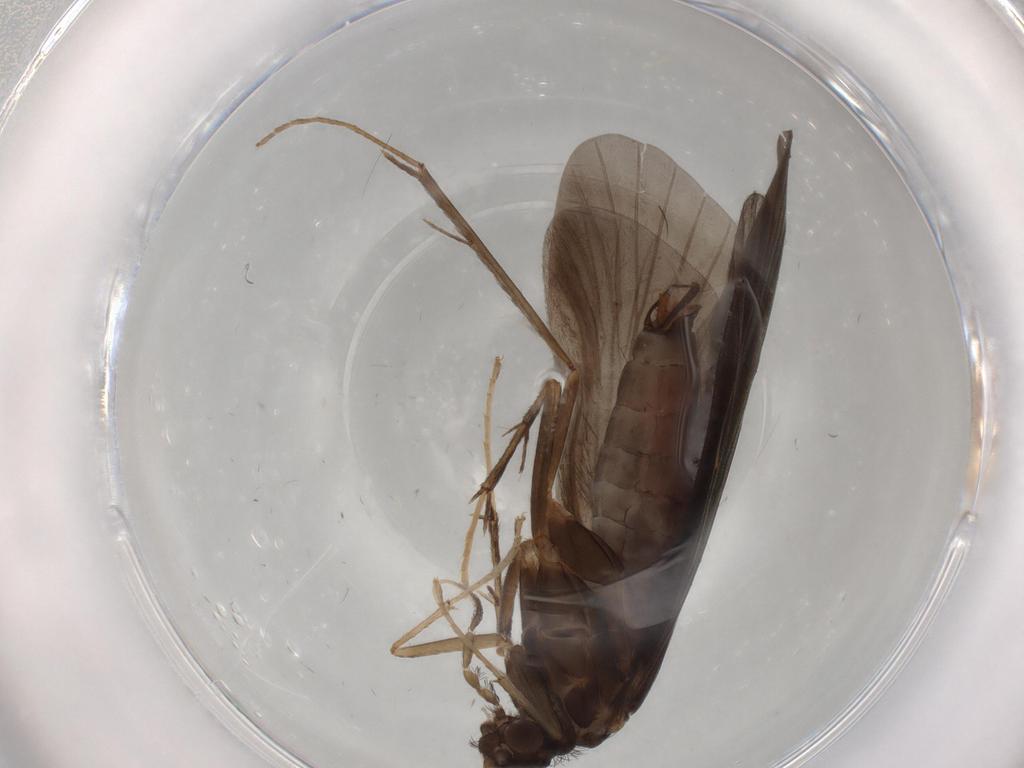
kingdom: Animalia
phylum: Arthropoda
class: Insecta
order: Trichoptera
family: Hydropsychidae
